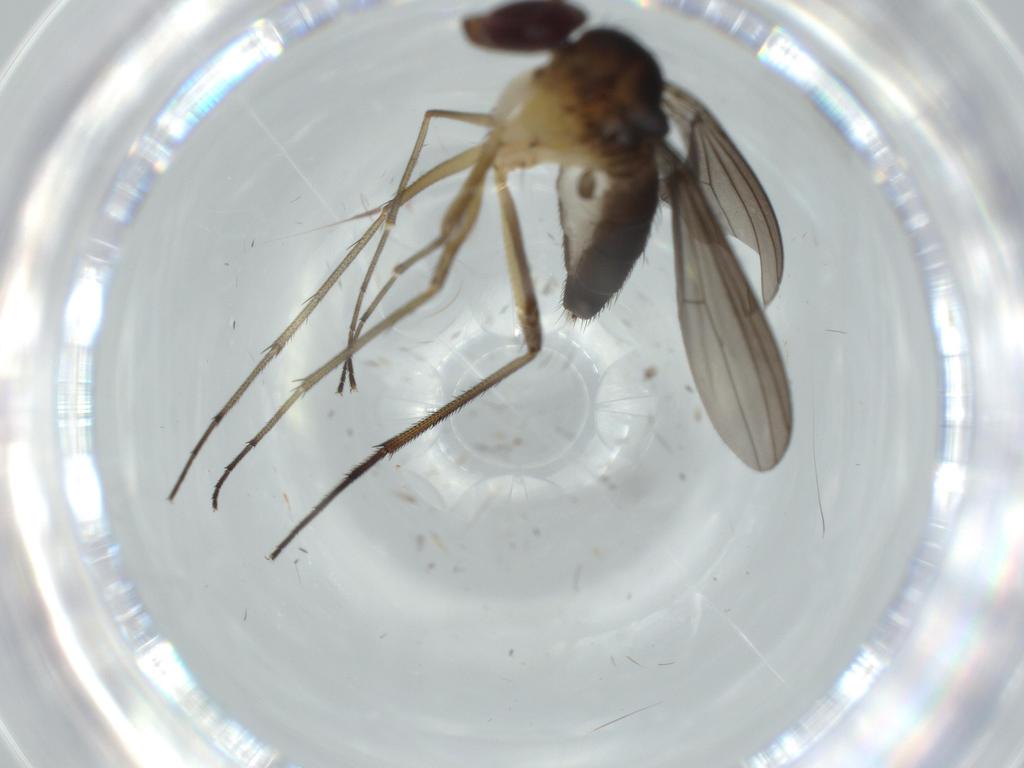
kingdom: Animalia
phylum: Arthropoda
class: Insecta
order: Diptera
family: Dolichopodidae
